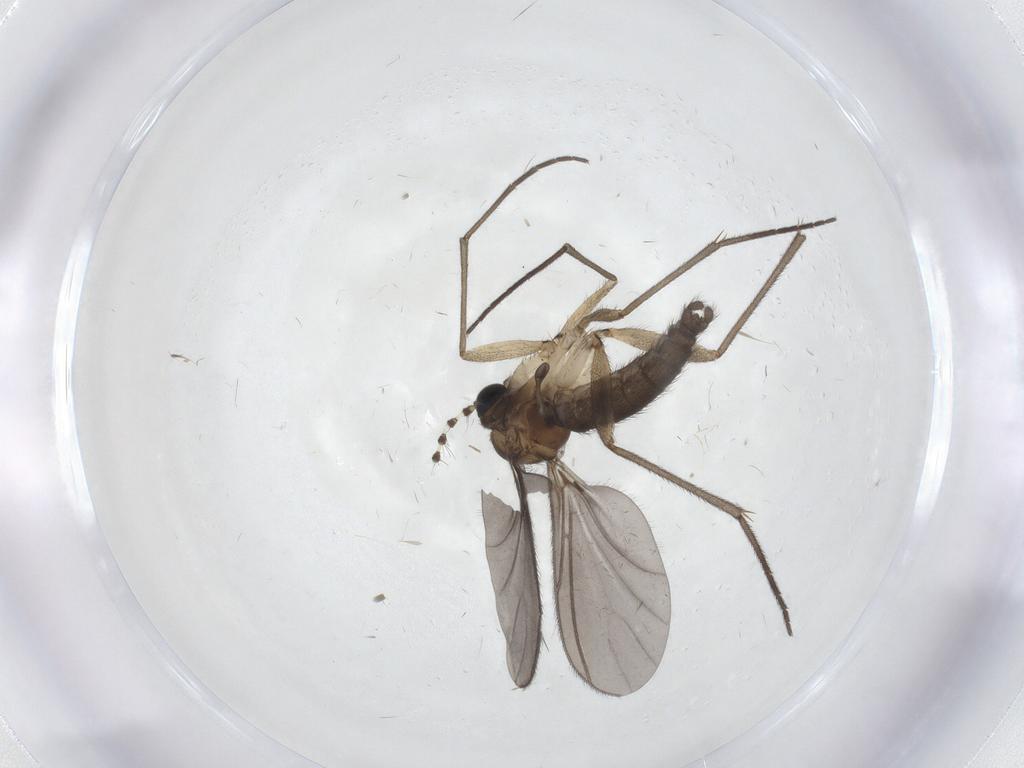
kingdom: Animalia
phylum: Arthropoda
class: Insecta
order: Diptera
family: Sciaridae
